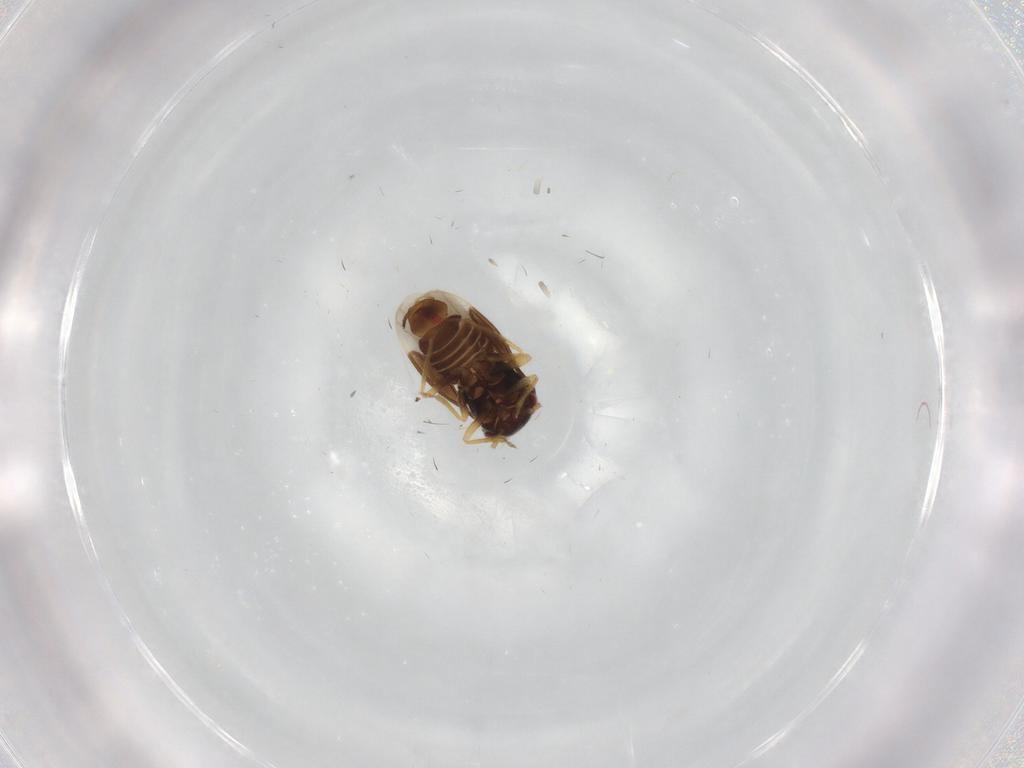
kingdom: Animalia
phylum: Arthropoda
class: Insecta
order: Hemiptera
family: Schizopteridae
